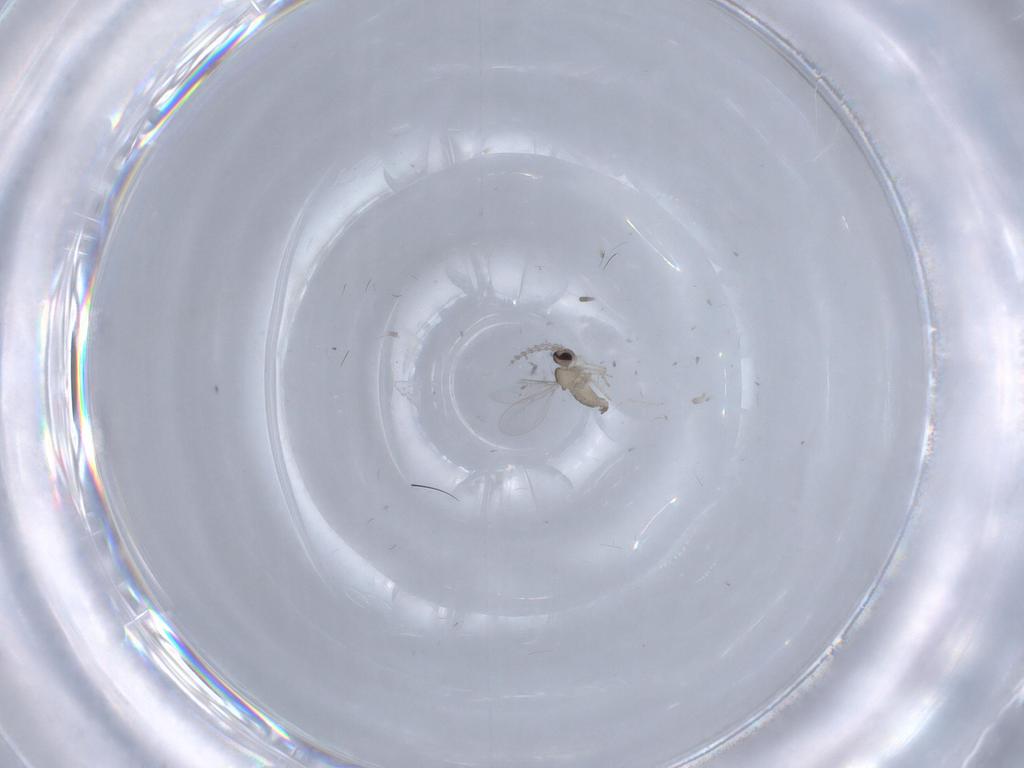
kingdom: Animalia
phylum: Arthropoda
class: Insecta
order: Diptera
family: Cecidomyiidae
